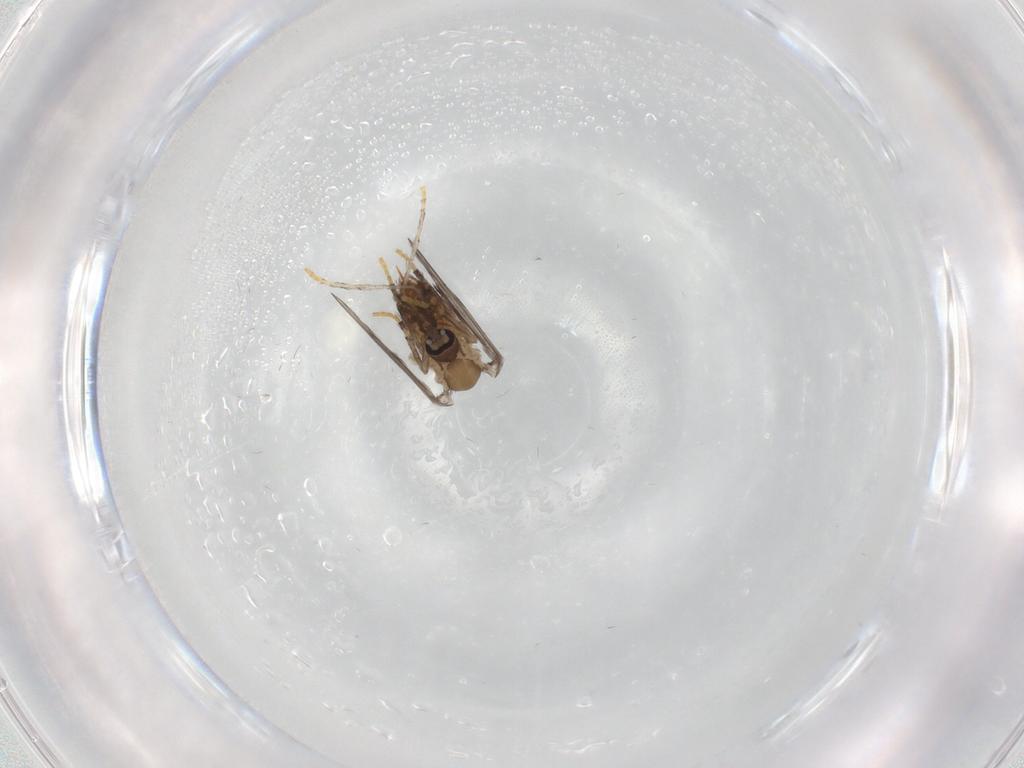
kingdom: Animalia
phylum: Arthropoda
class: Insecta
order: Diptera
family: Psychodidae
